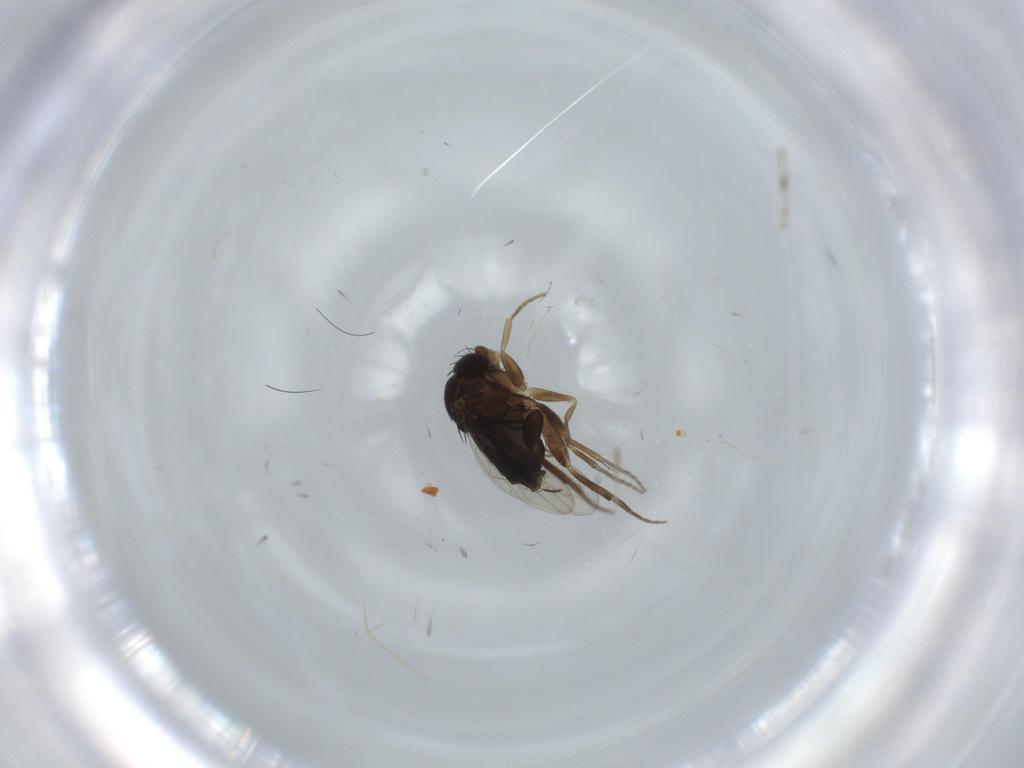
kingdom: Animalia
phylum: Arthropoda
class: Insecta
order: Diptera
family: Phoridae
